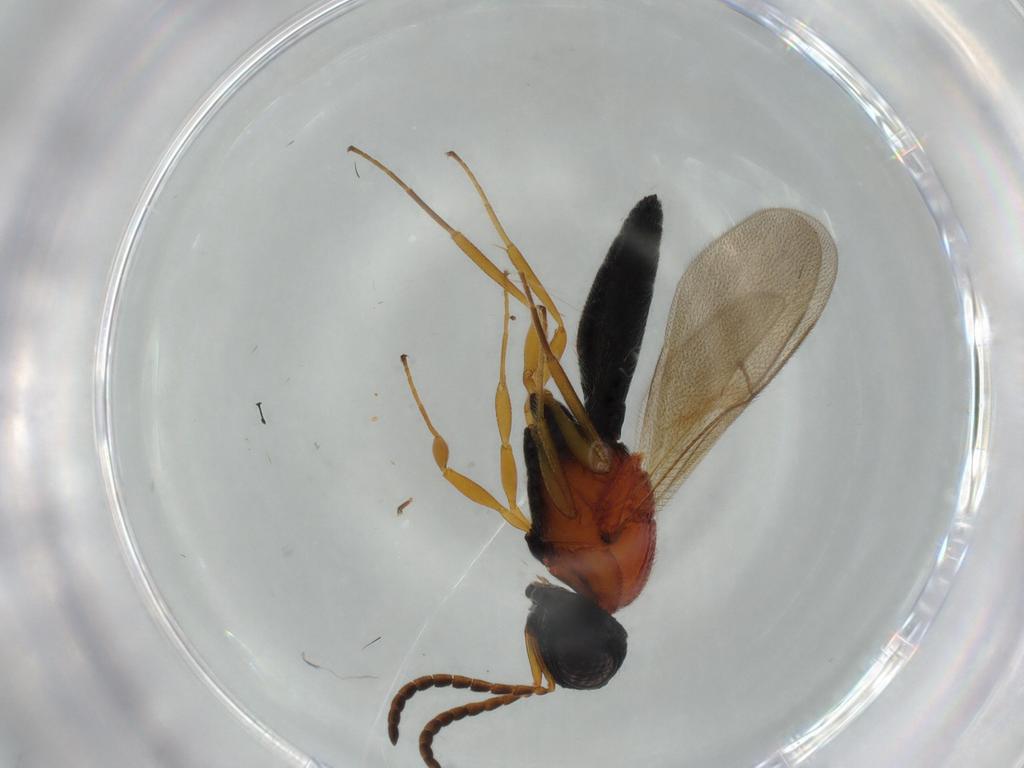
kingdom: Animalia
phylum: Arthropoda
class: Insecta
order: Hymenoptera
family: Scelionidae
